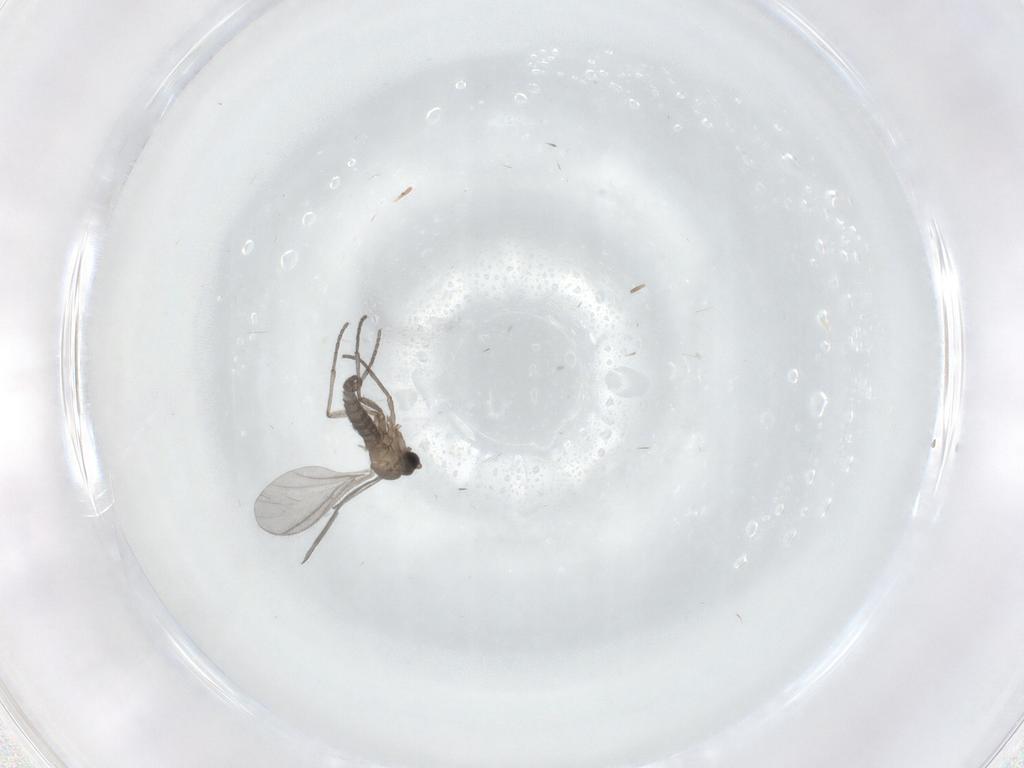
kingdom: Animalia
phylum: Arthropoda
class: Insecta
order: Diptera
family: Sciaridae
